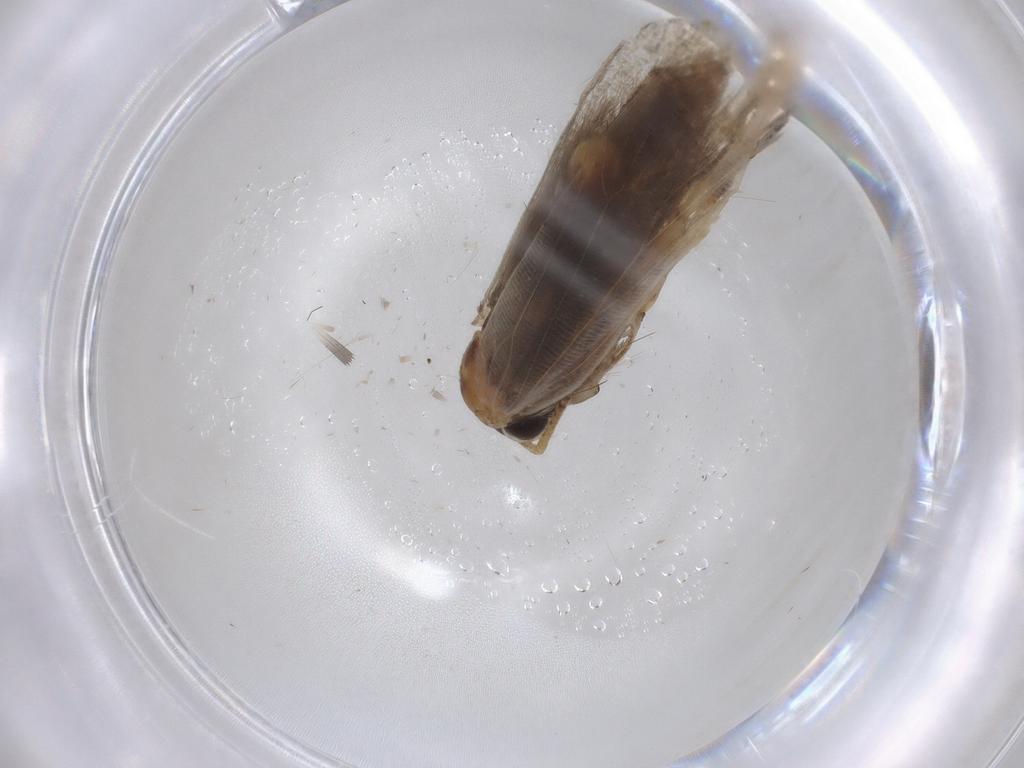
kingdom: Animalia
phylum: Arthropoda
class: Insecta
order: Lepidoptera
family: Gelechiidae
